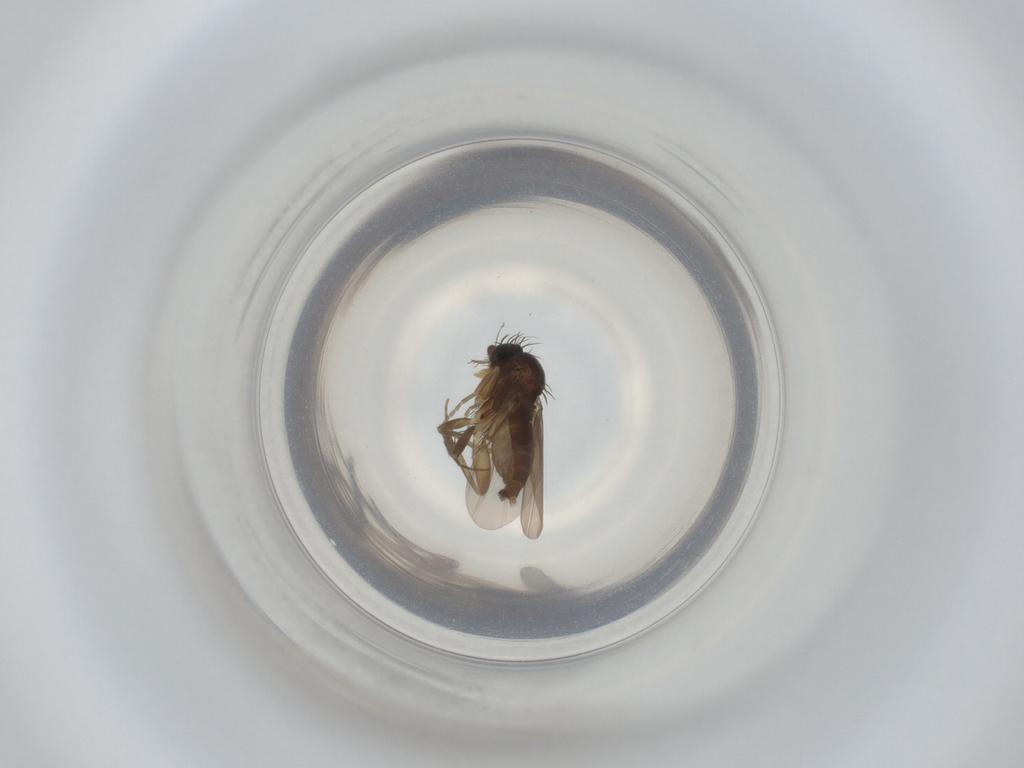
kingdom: Animalia
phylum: Arthropoda
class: Insecta
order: Diptera
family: Phoridae
